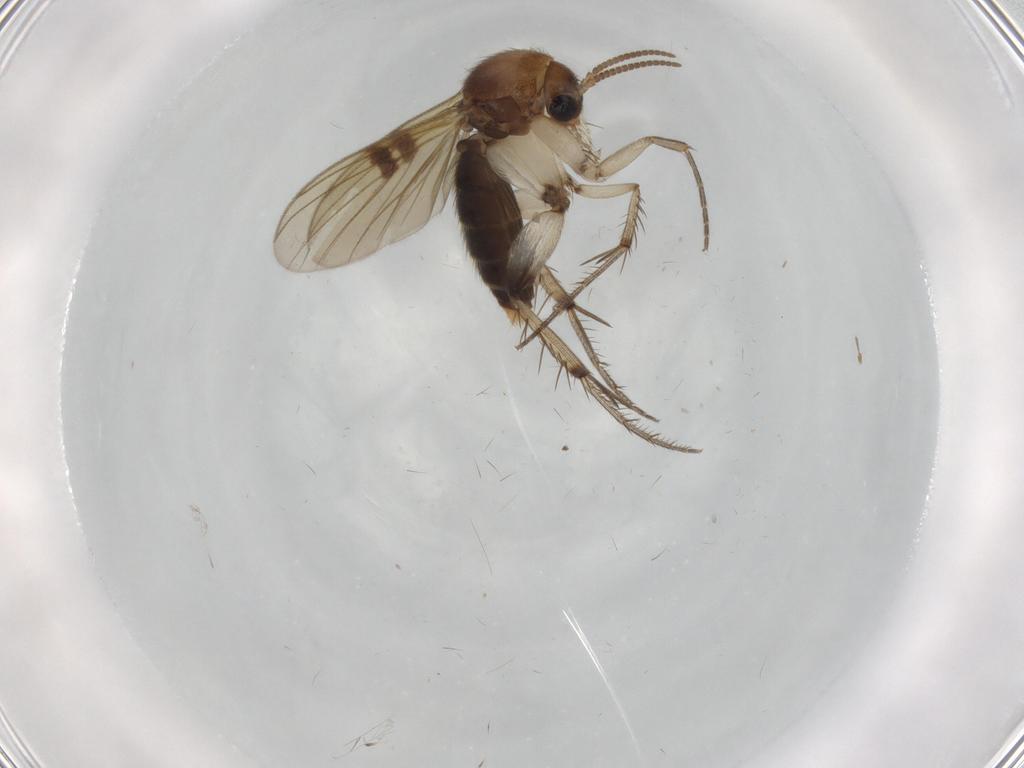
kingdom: Animalia
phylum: Arthropoda
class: Insecta
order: Diptera
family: Mycetophilidae
